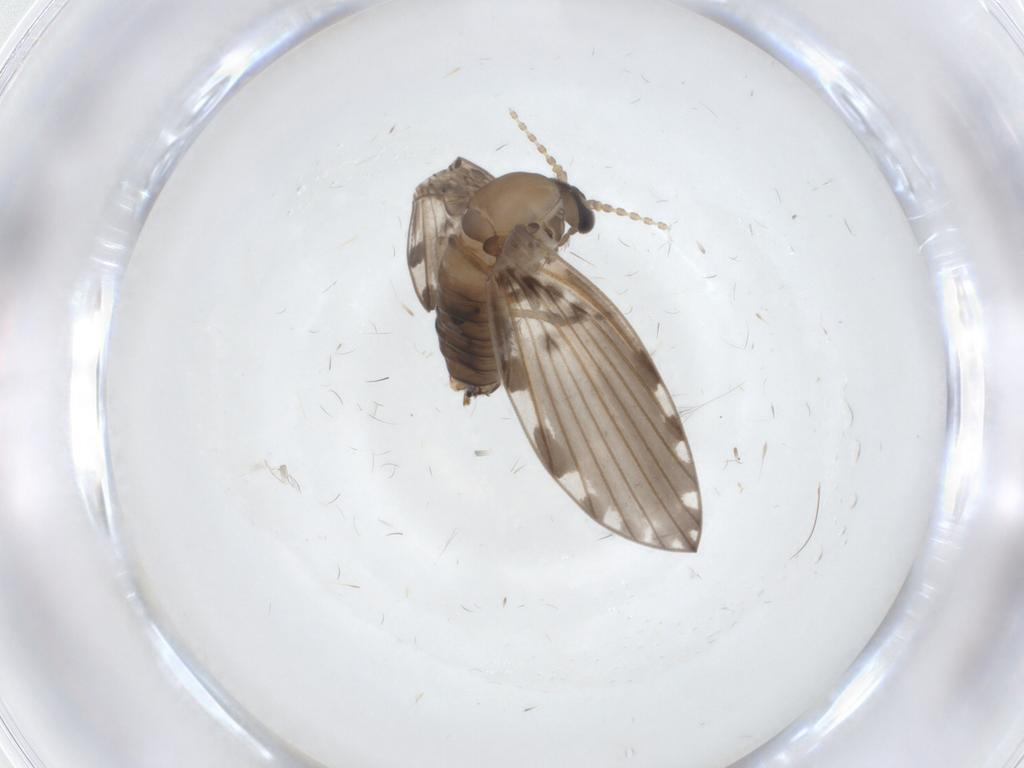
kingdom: Animalia
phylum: Arthropoda
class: Insecta
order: Diptera
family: Psychodidae
